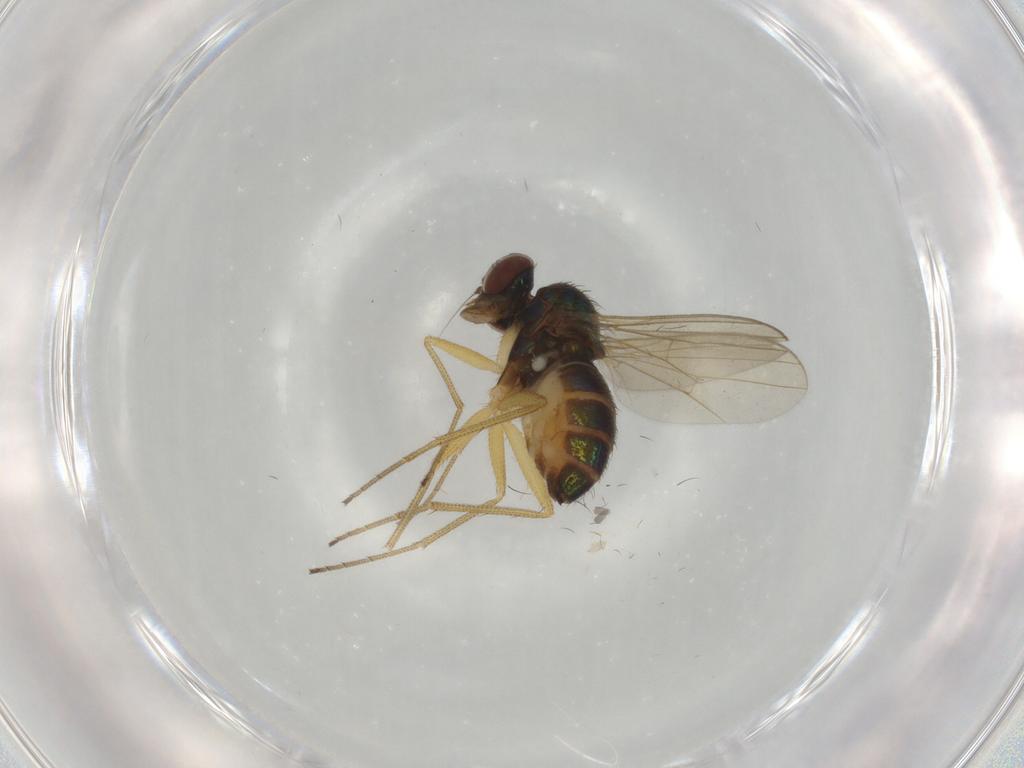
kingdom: Animalia
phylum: Arthropoda
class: Insecta
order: Diptera
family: Dolichopodidae
